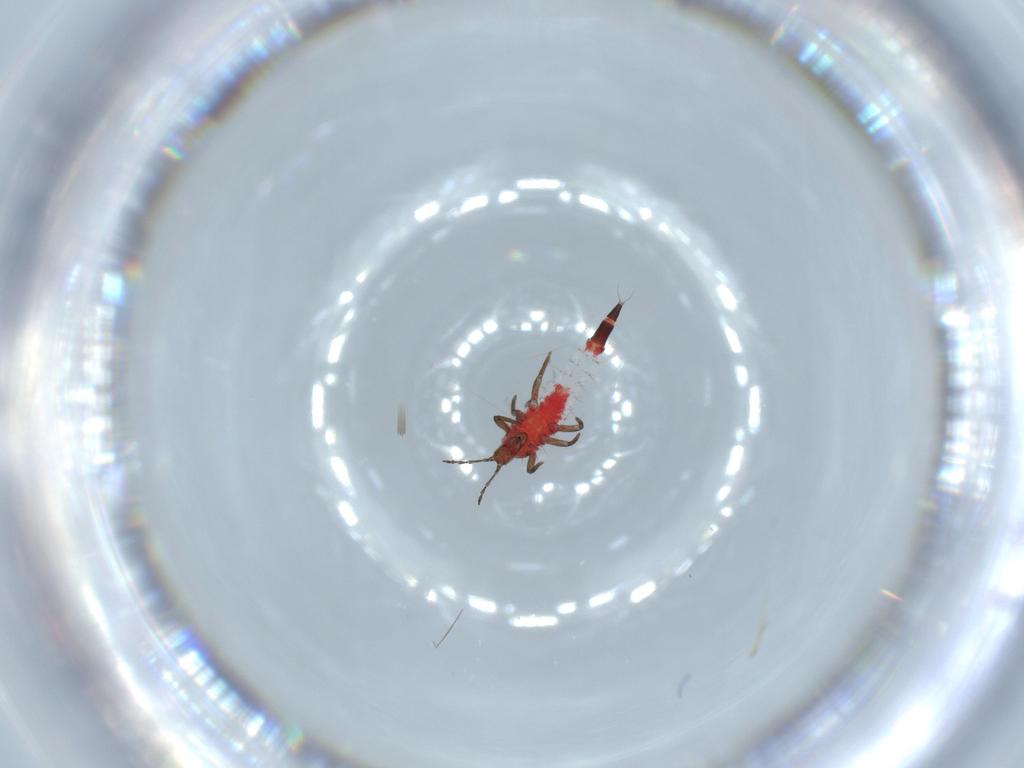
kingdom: Animalia
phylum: Arthropoda
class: Insecta
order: Thysanoptera
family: Phlaeothripidae
